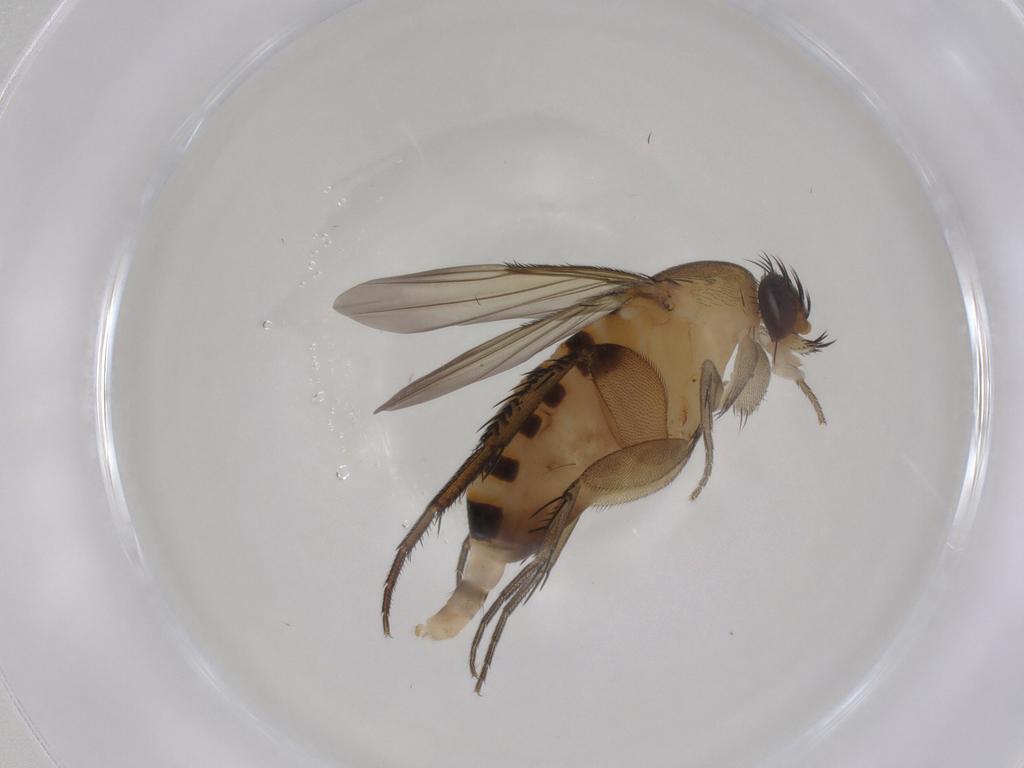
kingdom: Animalia
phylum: Arthropoda
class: Insecta
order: Diptera
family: Phoridae
